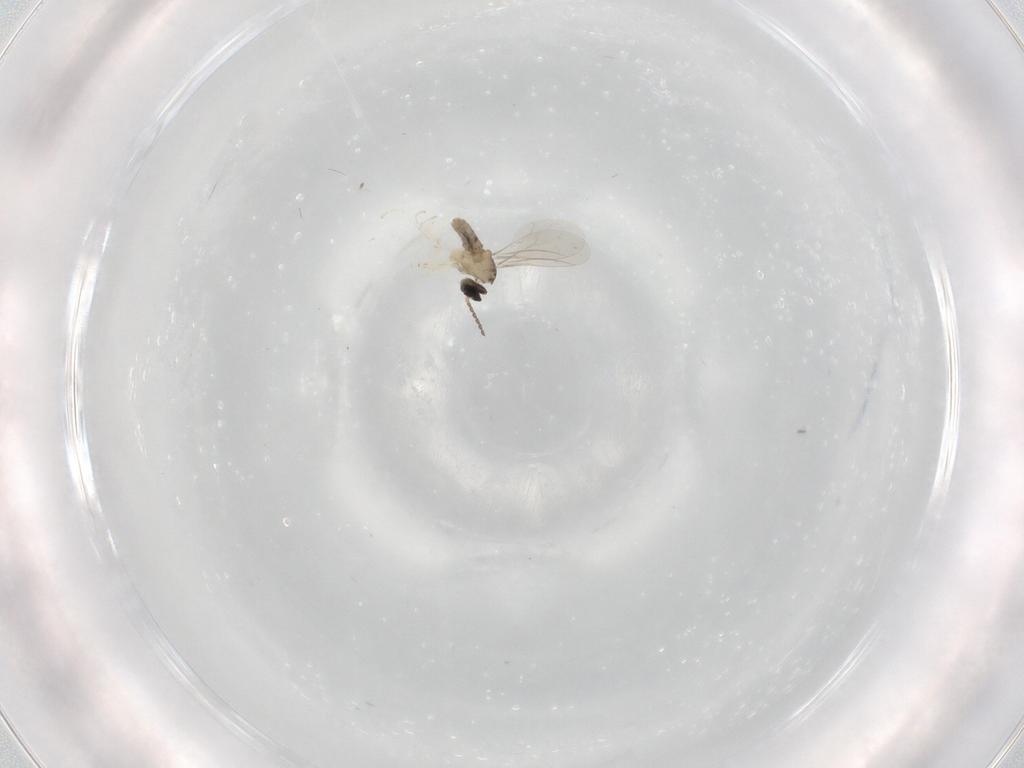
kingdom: Animalia
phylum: Arthropoda
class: Insecta
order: Diptera
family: Cecidomyiidae
